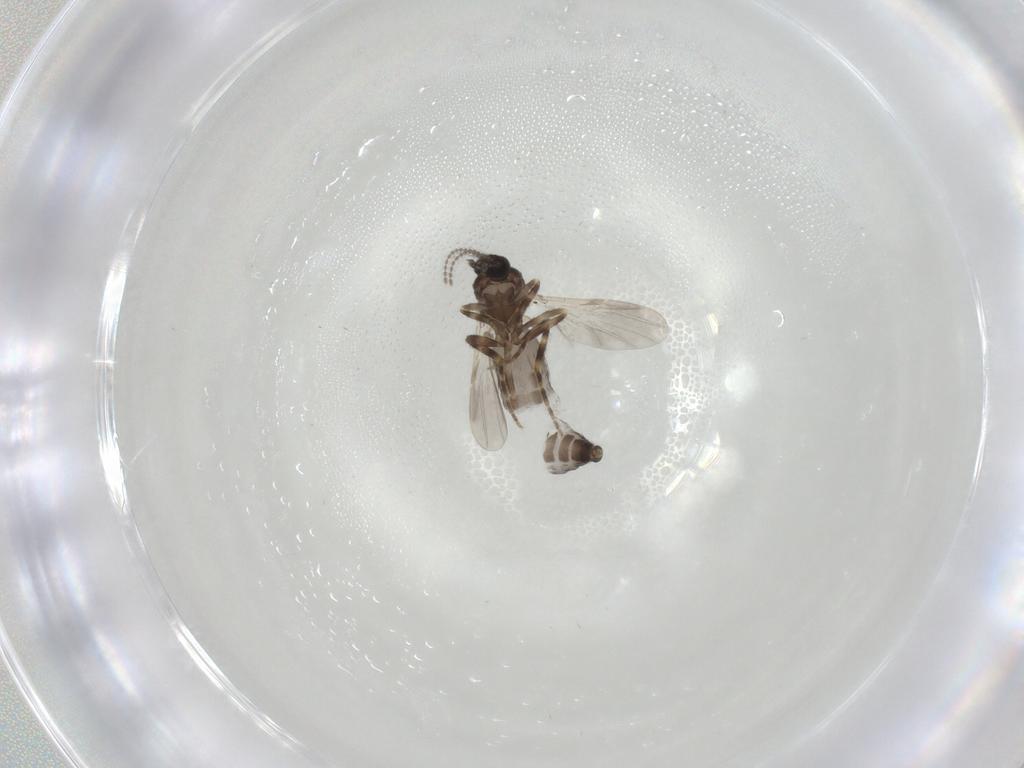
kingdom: Animalia
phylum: Arthropoda
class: Insecta
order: Diptera
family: Ceratopogonidae
